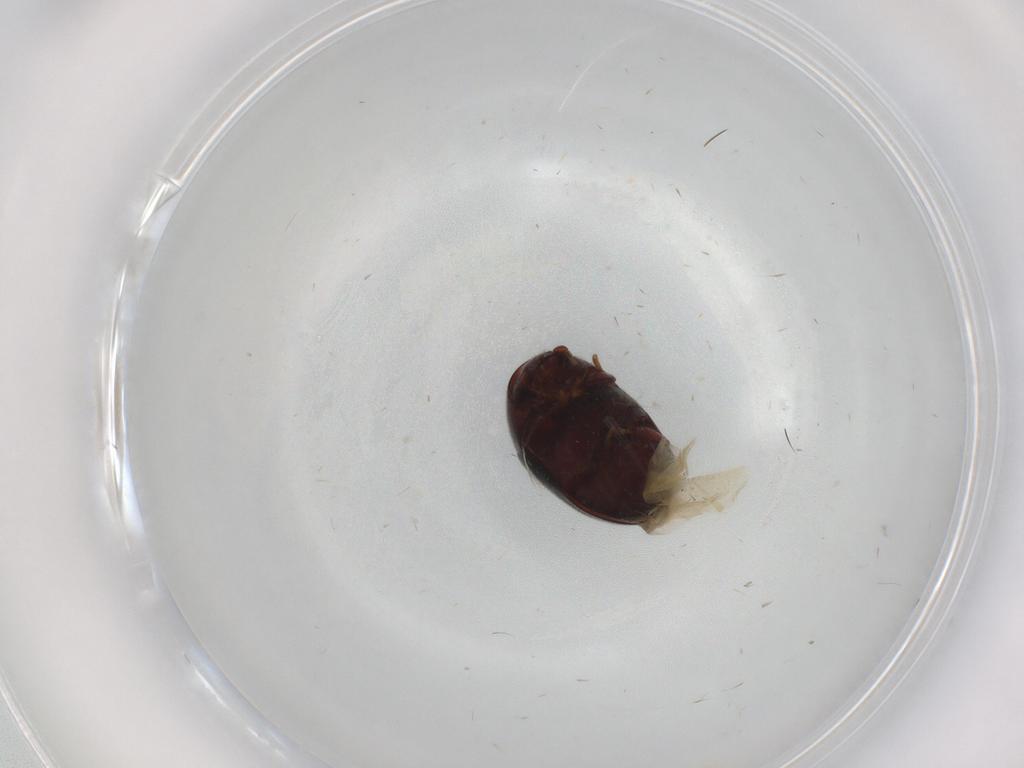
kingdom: Animalia
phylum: Arthropoda
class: Insecta
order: Coleoptera
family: Ptinidae
